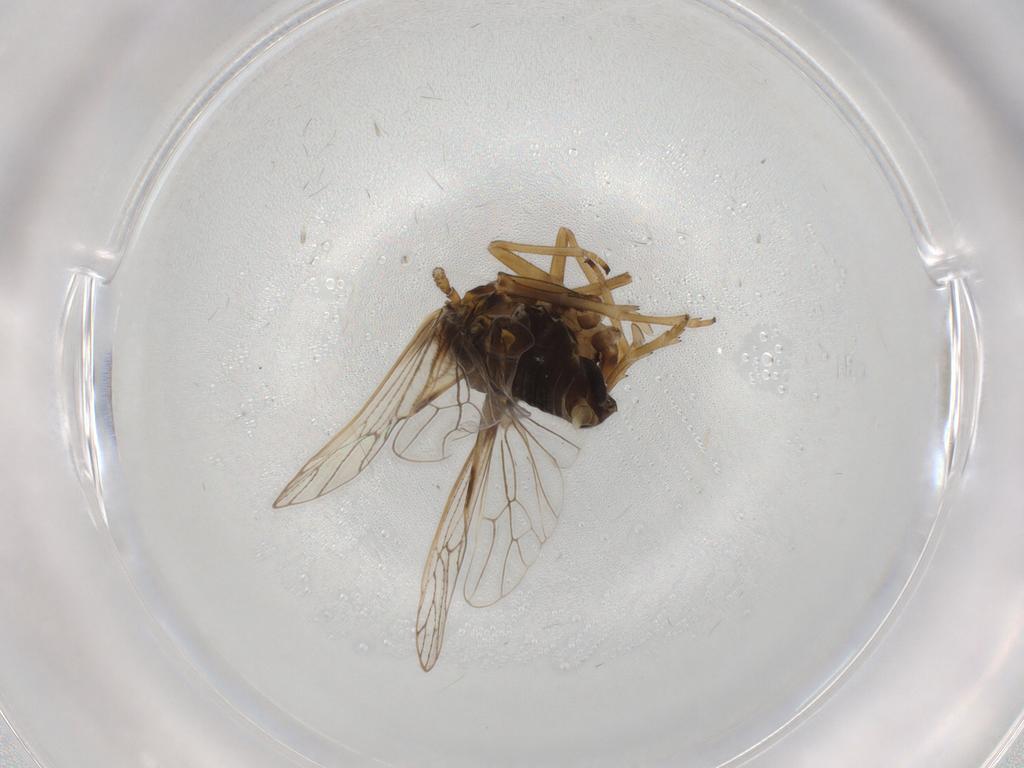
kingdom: Animalia
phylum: Arthropoda
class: Insecta
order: Hemiptera
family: Delphacidae
